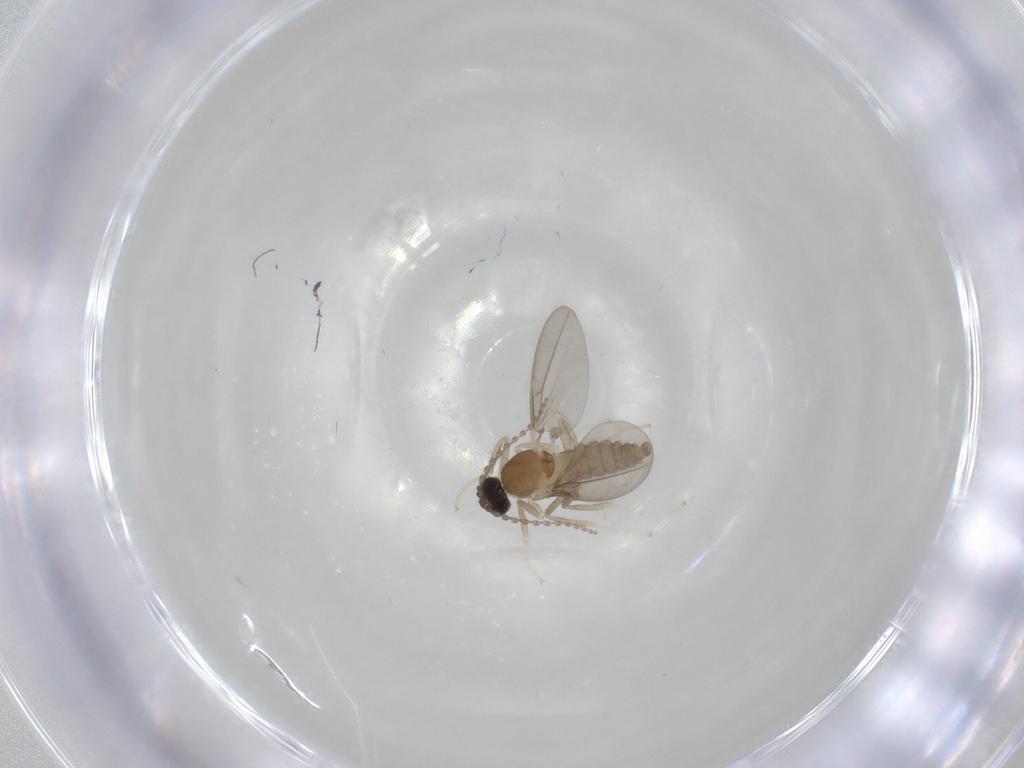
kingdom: Animalia
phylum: Arthropoda
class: Insecta
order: Diptera
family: Cecidomyiidae
